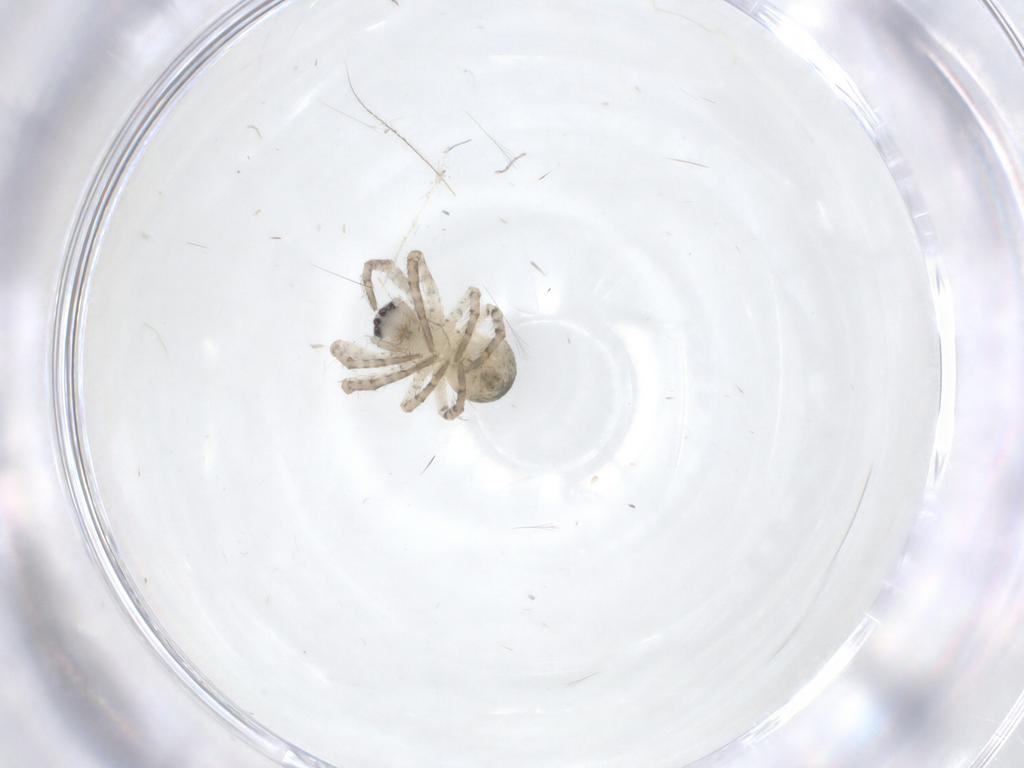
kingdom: Animalia
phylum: Arthropoda
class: Arachnida
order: Araneae
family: Araneidae
